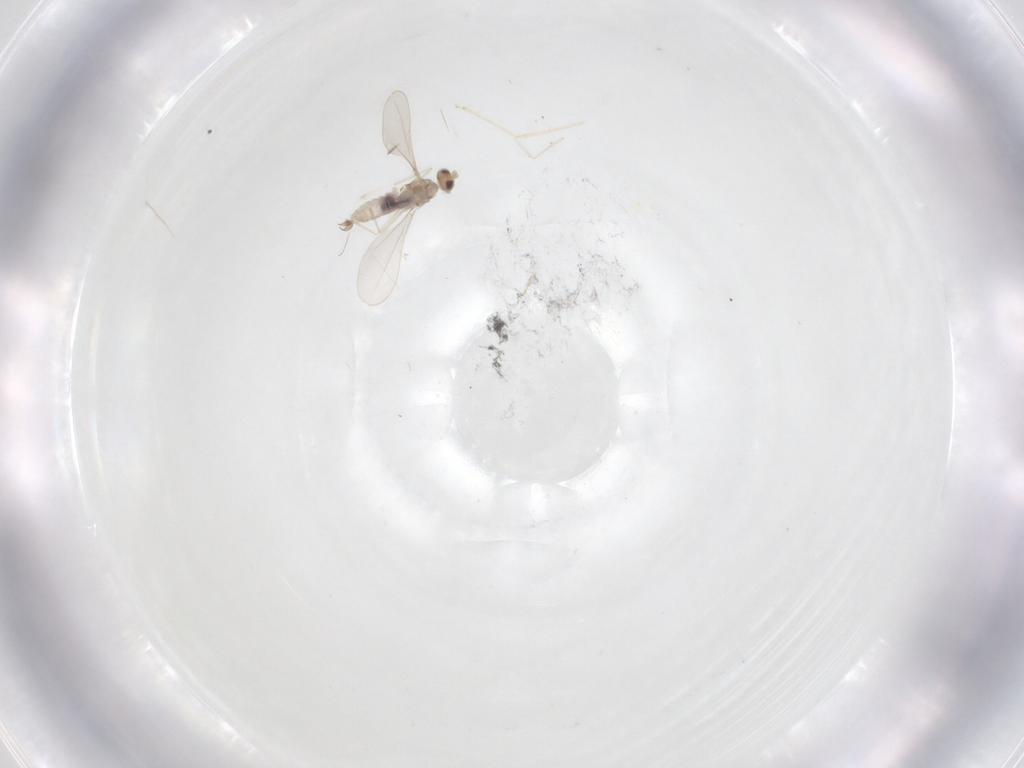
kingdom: Animalia
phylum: Arthropoda
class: Insecta
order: Diptera
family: Cecidomyiidae
